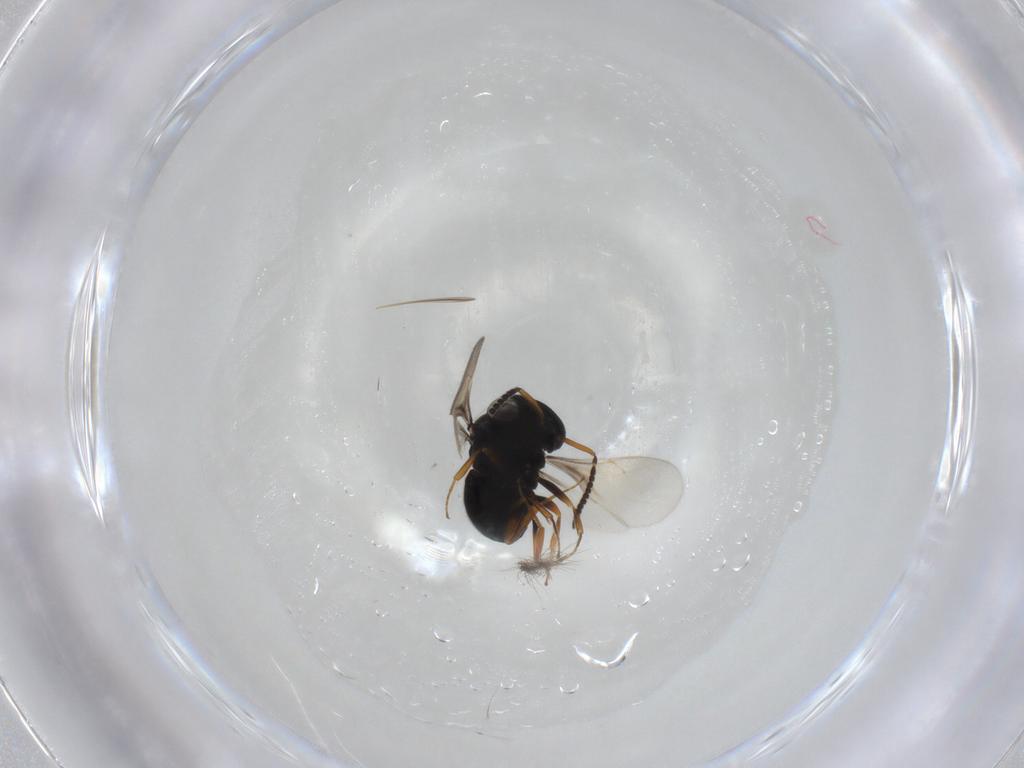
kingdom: Animalia
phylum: Arthropoda
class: Insecta
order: Hymenoptera
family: Scelionidae
